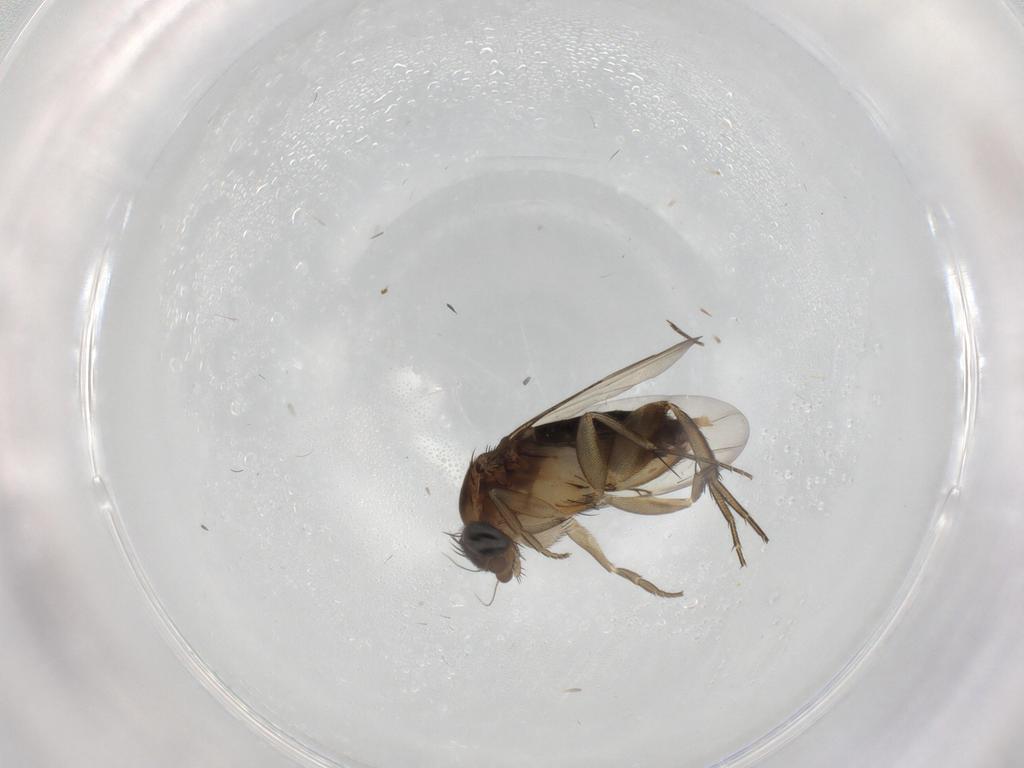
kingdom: Animalia
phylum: Arthropoda
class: Insecta
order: Diptera
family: Phoridae
